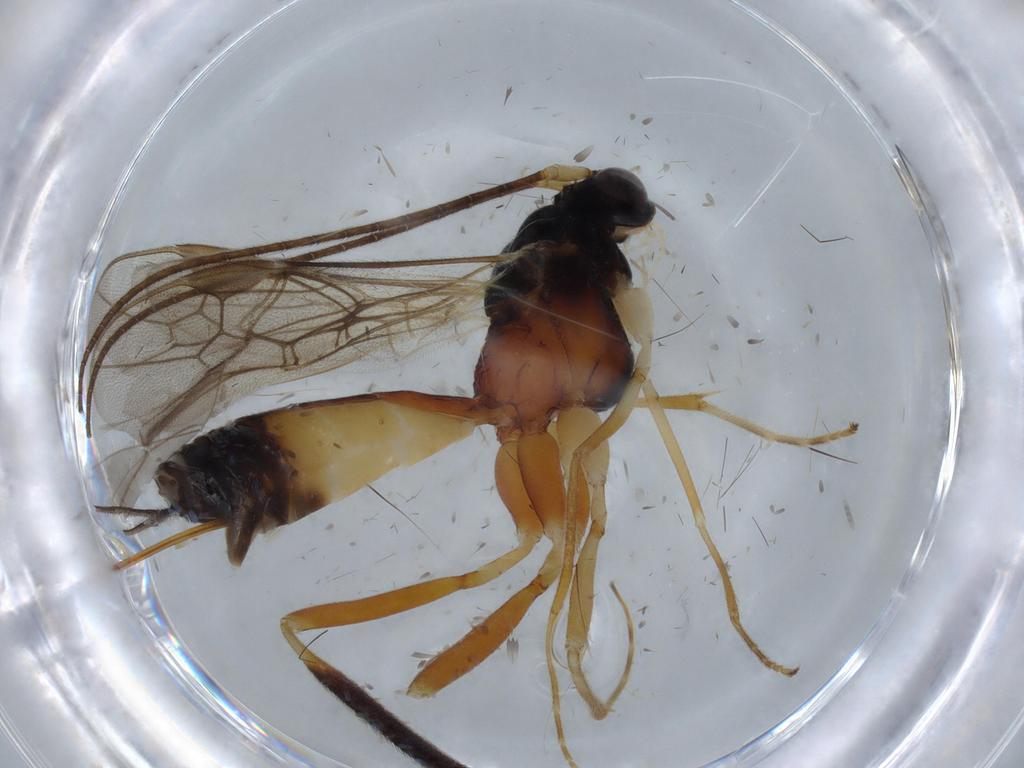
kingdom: Animalia
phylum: Arthropoda
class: Insecta
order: Hymenoptera
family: Braconidae
